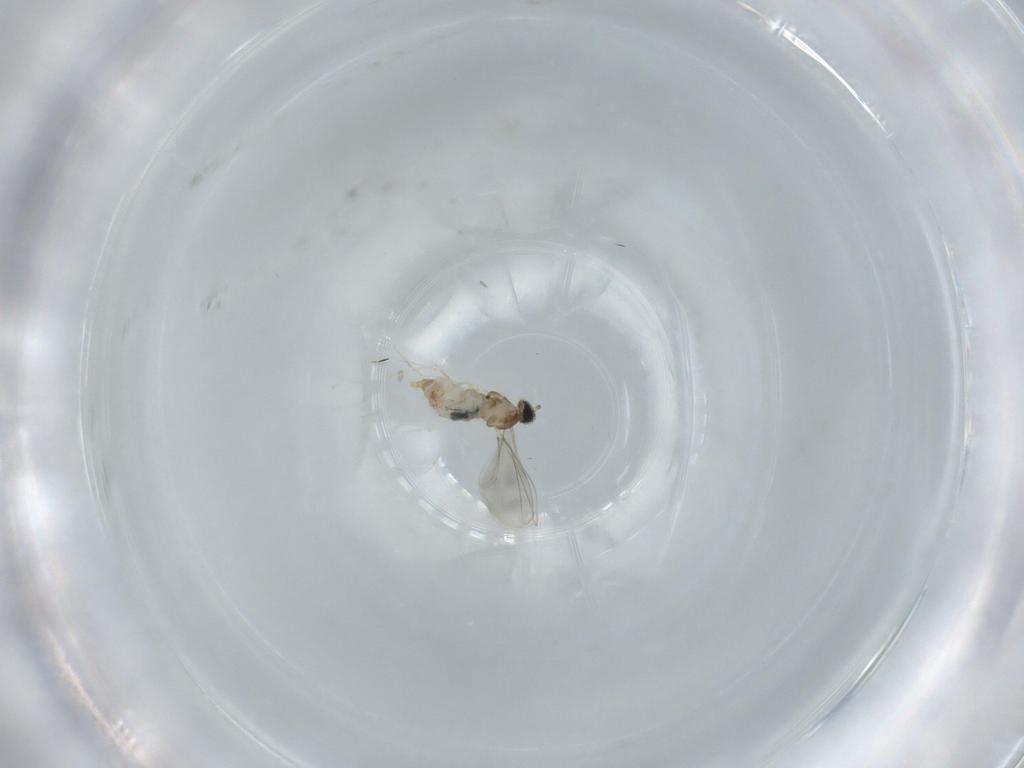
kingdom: Animalia
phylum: Arthropoda
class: Insecta
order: Diptera
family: Cecidomyiidae
